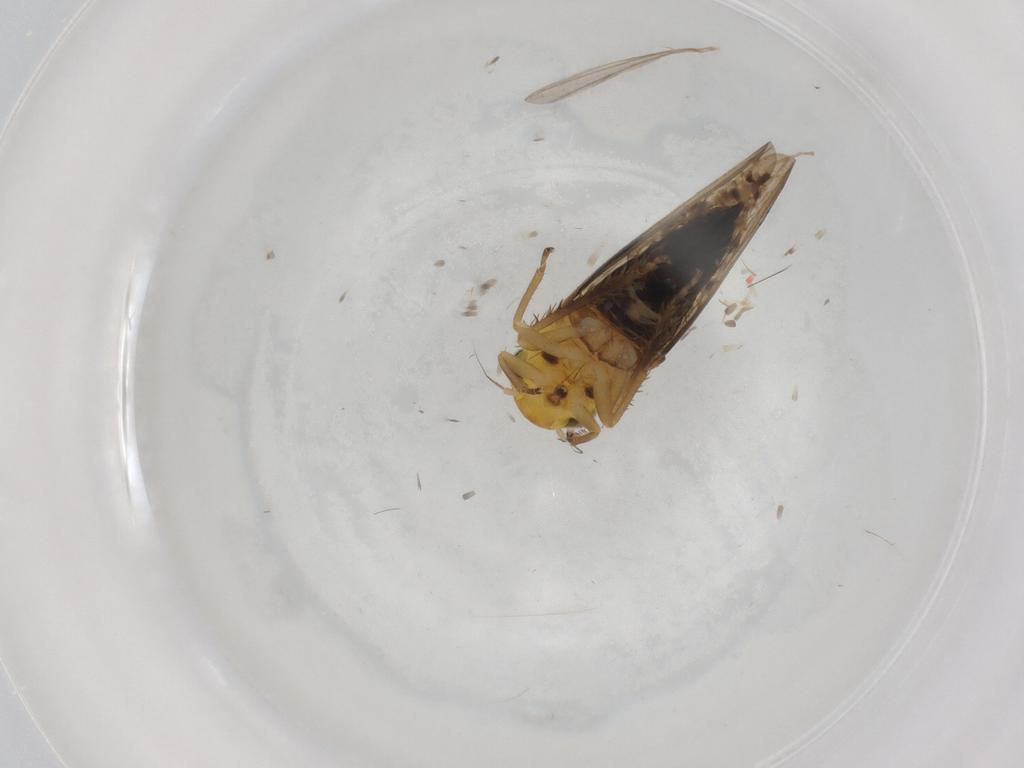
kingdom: Animalia
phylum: Arthropoda
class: Insecta
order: Hemiptera
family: Cicadellidae
